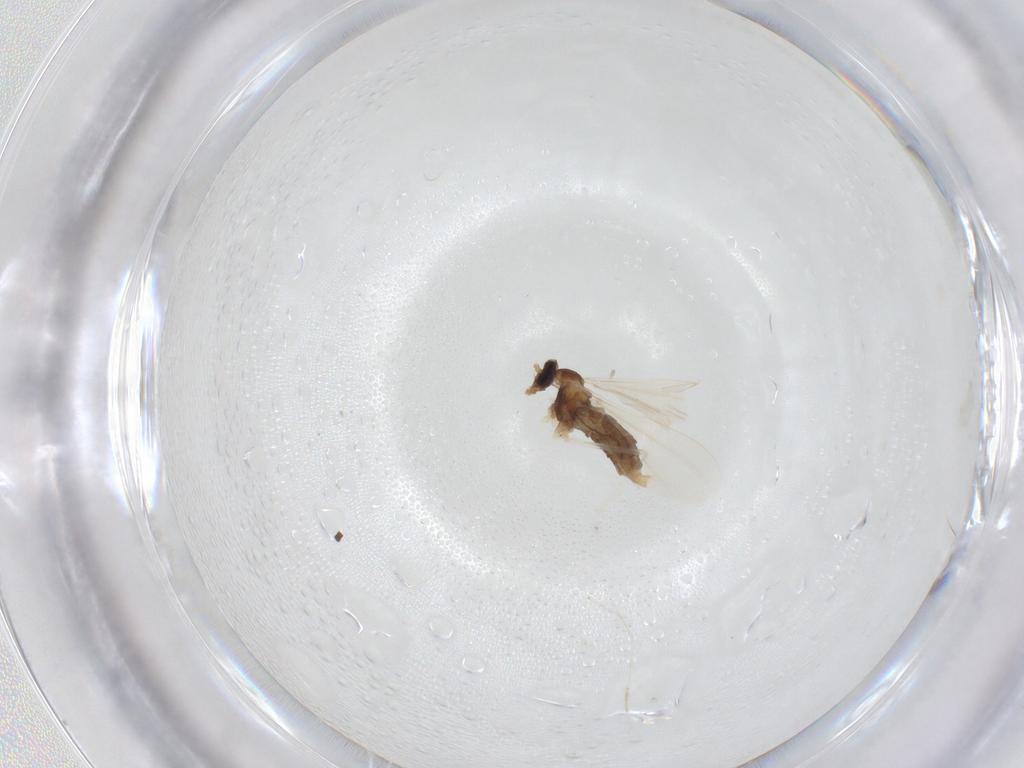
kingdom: Animalia
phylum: Arthropoda
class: Insecta
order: Diptera
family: Cecidomyiidae
